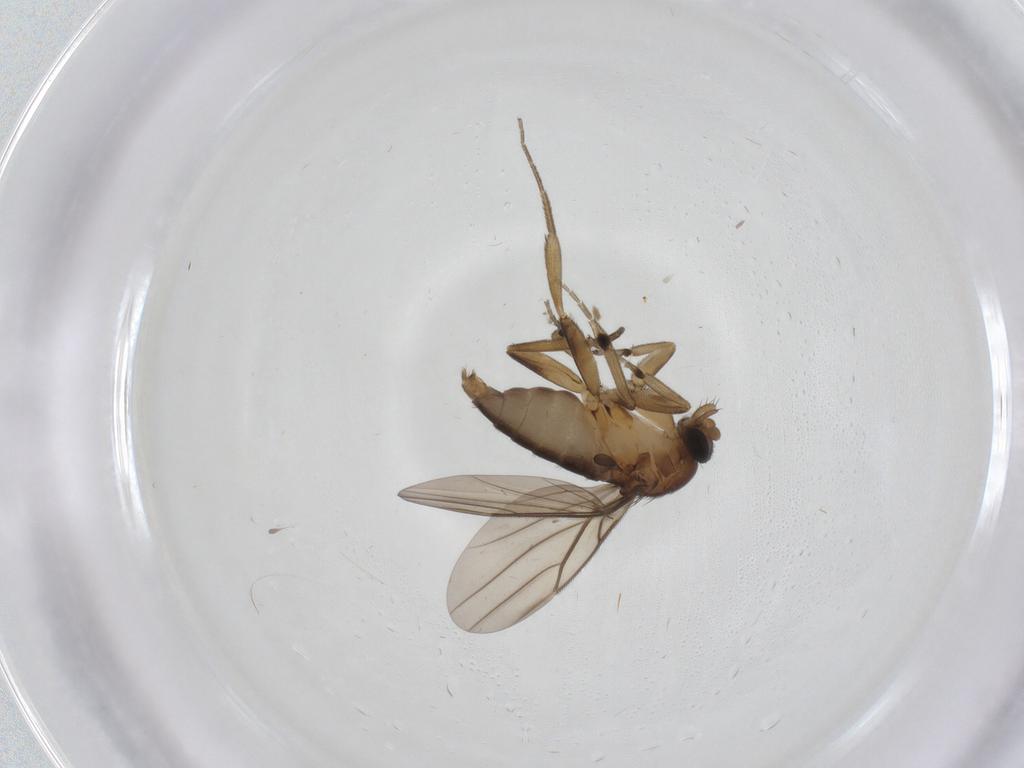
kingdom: Animalia
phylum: Arthropoda
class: Insecta
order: Diptera
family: Phoridae
